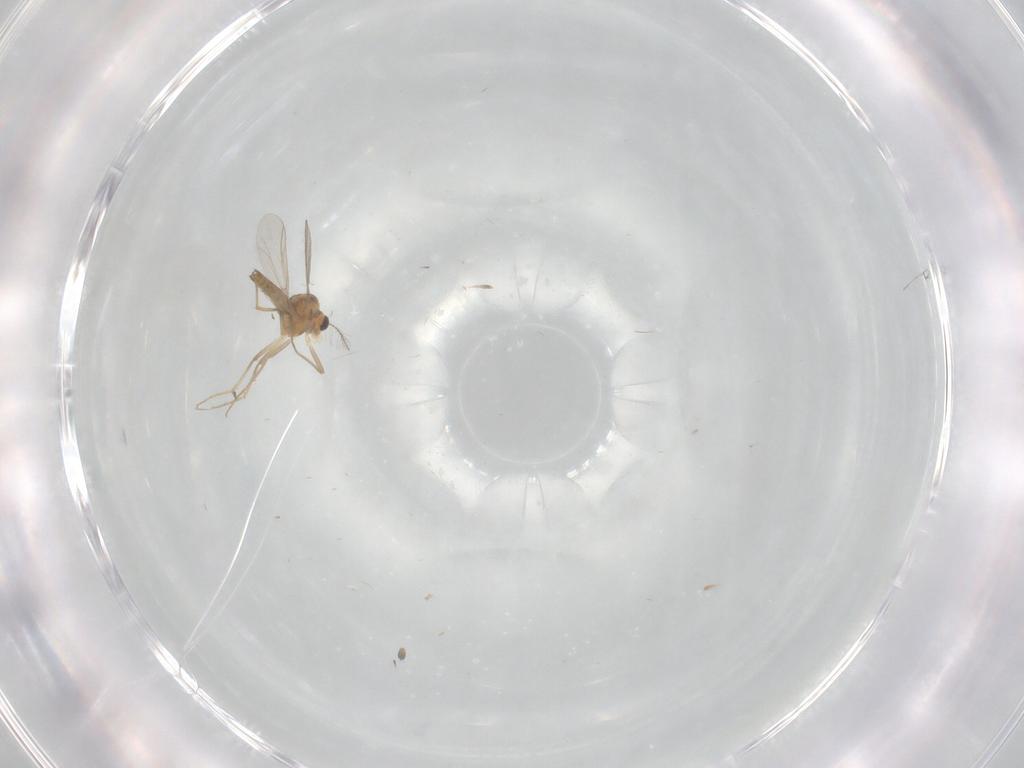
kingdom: Animalia
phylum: Arthropoda
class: Insecta
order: Diptera
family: Chironomidae
